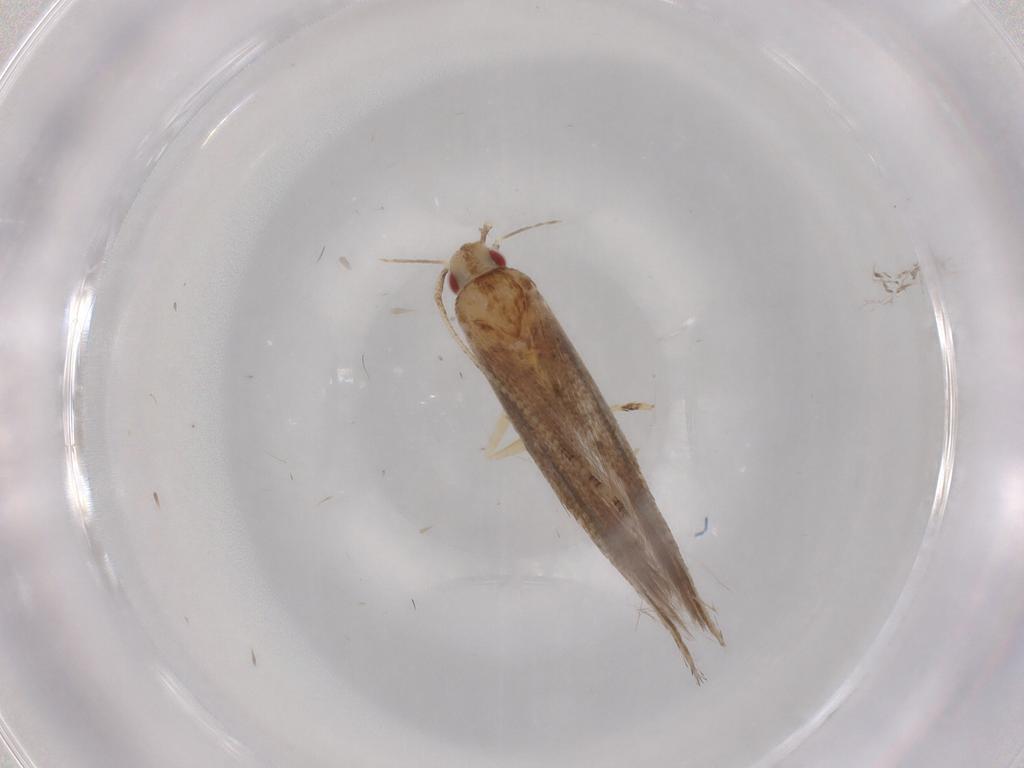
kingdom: Animalia
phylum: Arthropoda
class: Insecta
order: Lepidoptera
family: Erebidae
